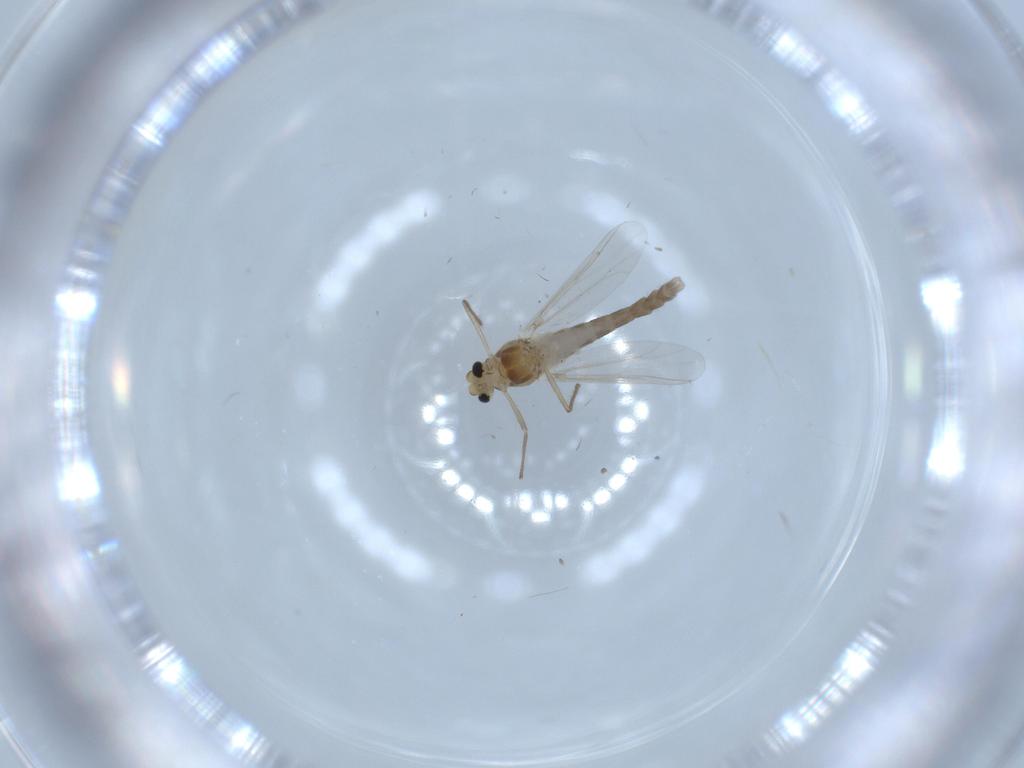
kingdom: Animalia
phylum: Arthropoda
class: Insecta
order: Diptera
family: Chironomidae
